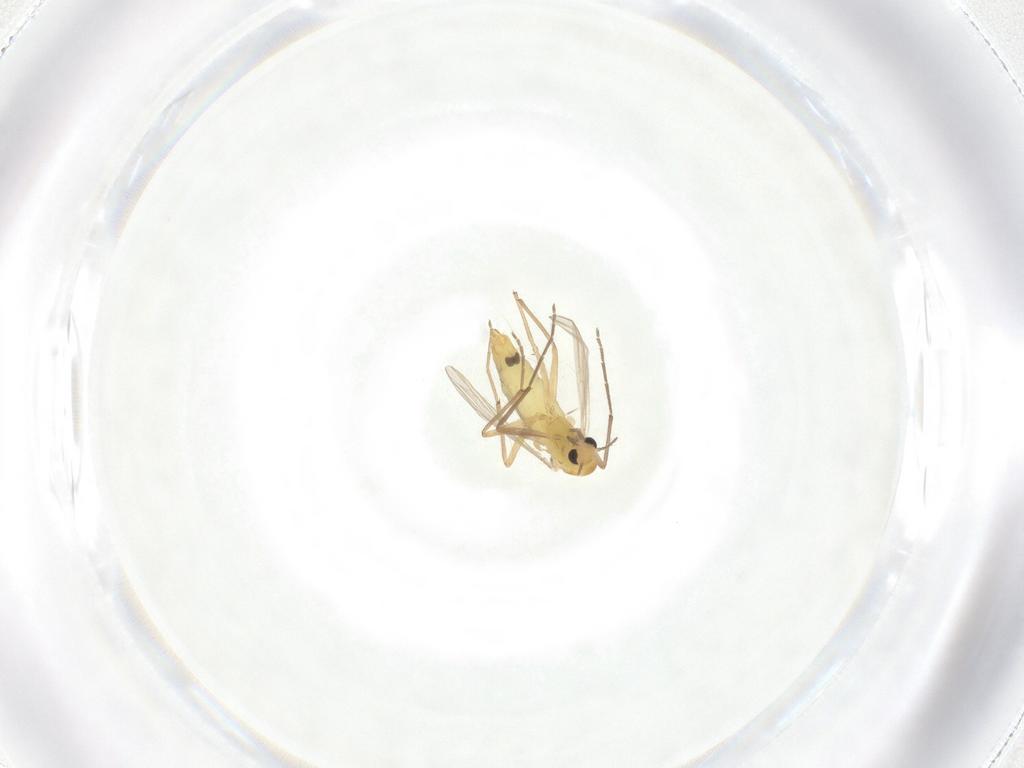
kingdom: Animalia
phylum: Arthropoda
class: Insecta
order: Diptera
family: Chironomidae
